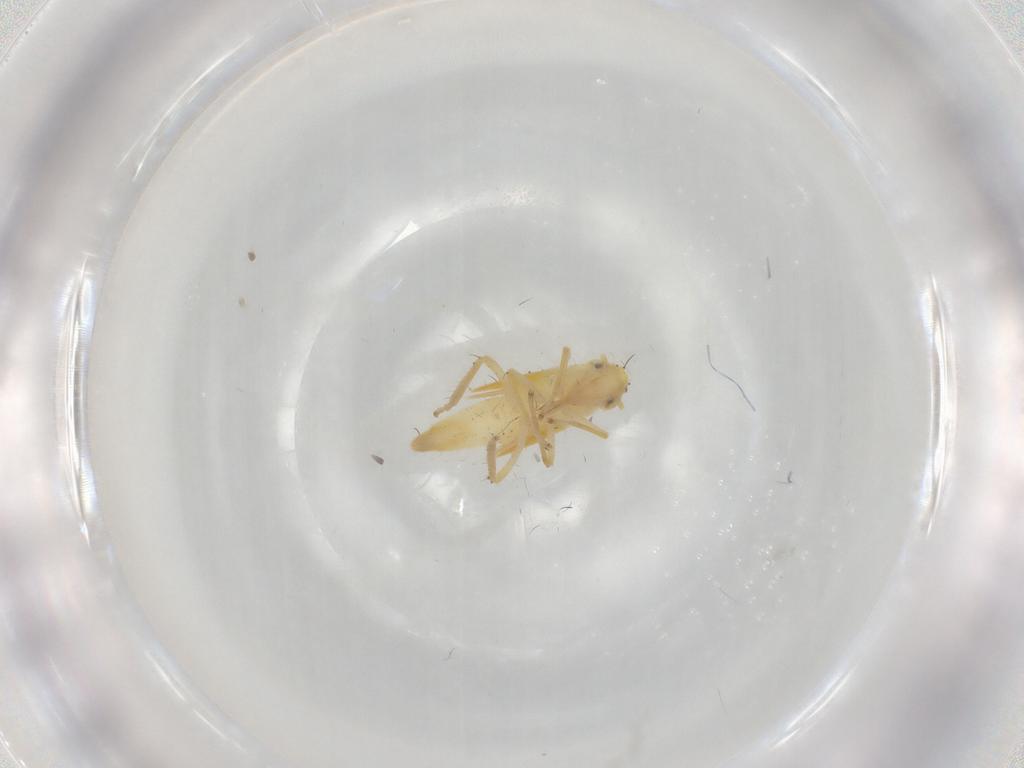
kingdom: Animalia
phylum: Arthropoda
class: Insecta
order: Hemiptera
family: Cicadellidae
